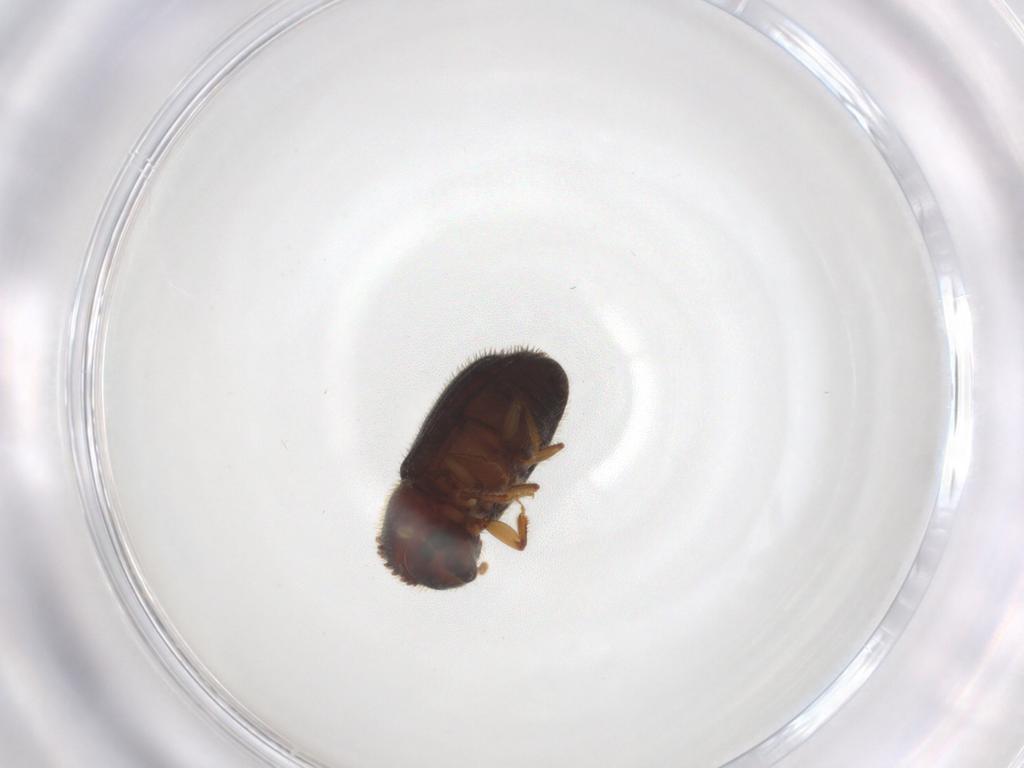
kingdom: Animalia
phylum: Arthropoda
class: Insecta
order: Coleoptera
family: Curculionidae
